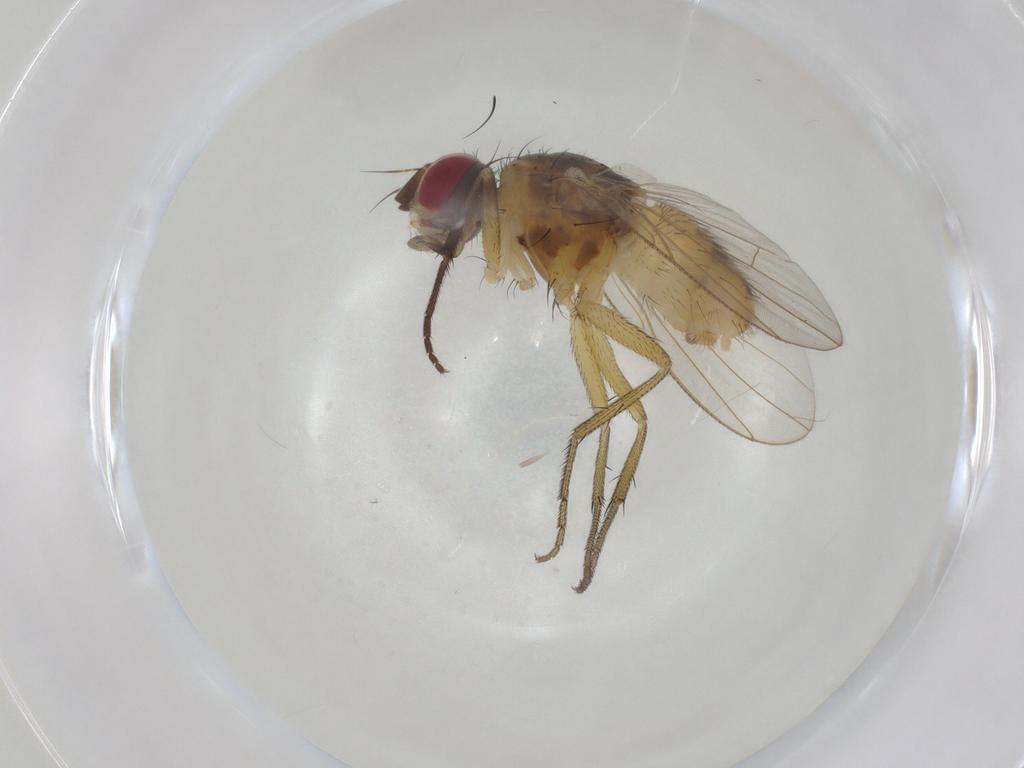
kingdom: Animalia
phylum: Arthropoda
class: Insecta
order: Diptera
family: Muscidae
